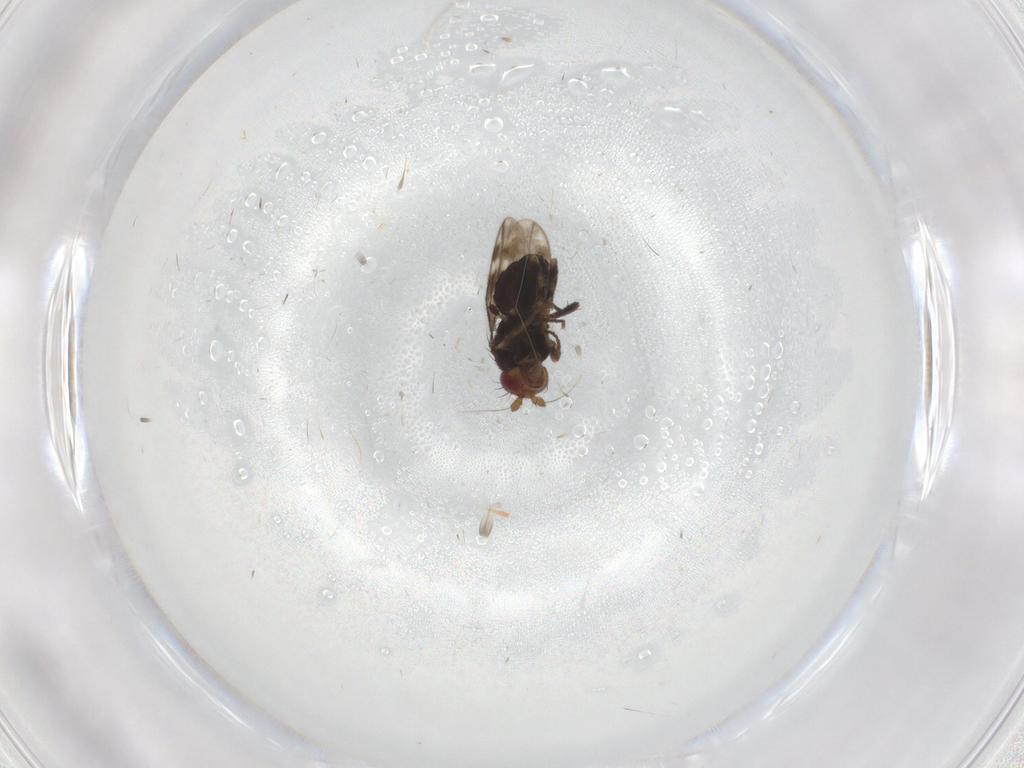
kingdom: Animalia
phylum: Arthropoda
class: Insecta
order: Diptera
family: Sphaeroceridae
